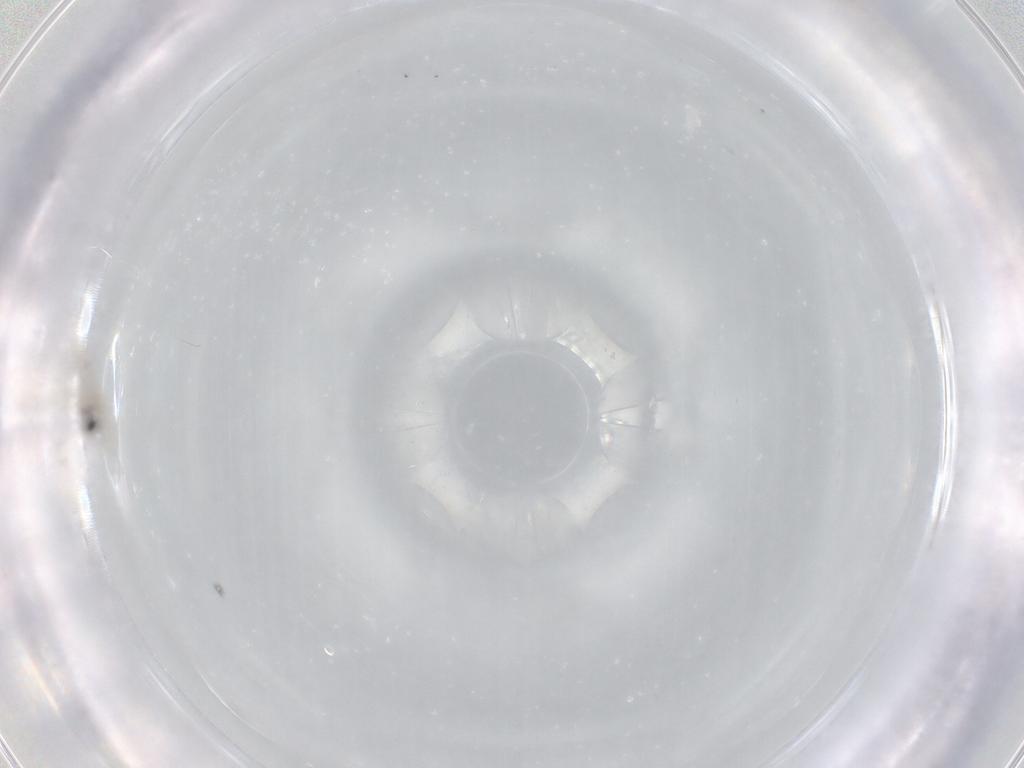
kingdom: Animalia
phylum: Arthropoda
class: Insecta
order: Diptera
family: Cecidomyiidae
